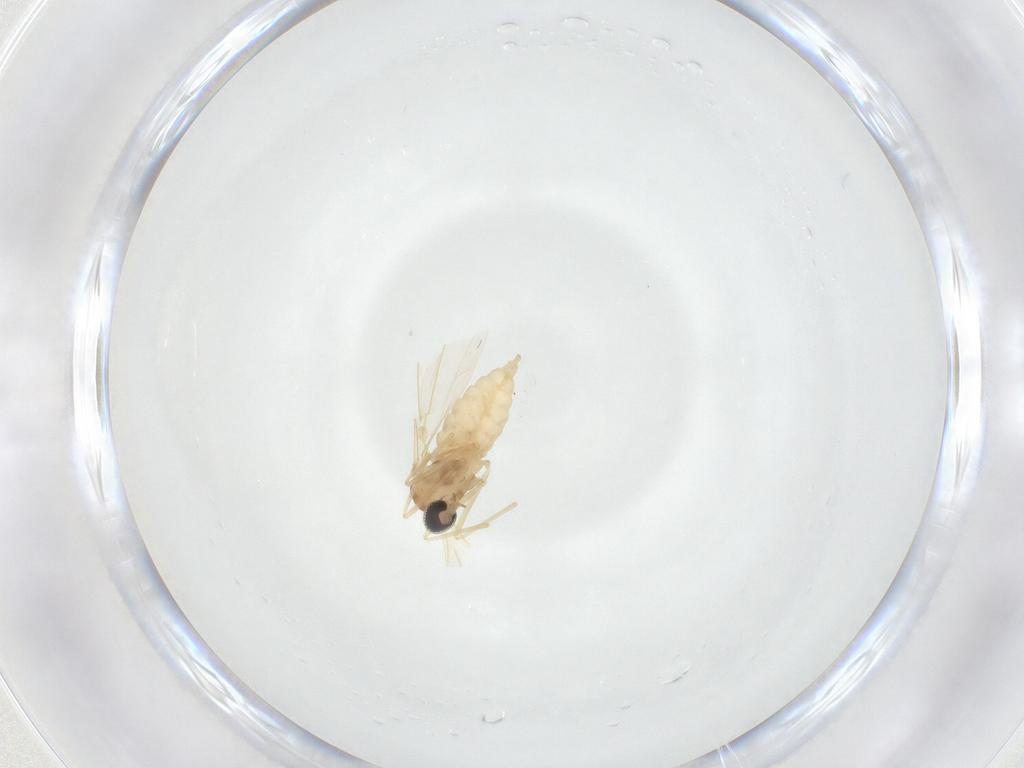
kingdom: Animalia
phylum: Arthropoda
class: Insecta
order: Diptera
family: Cecidomyiidae
